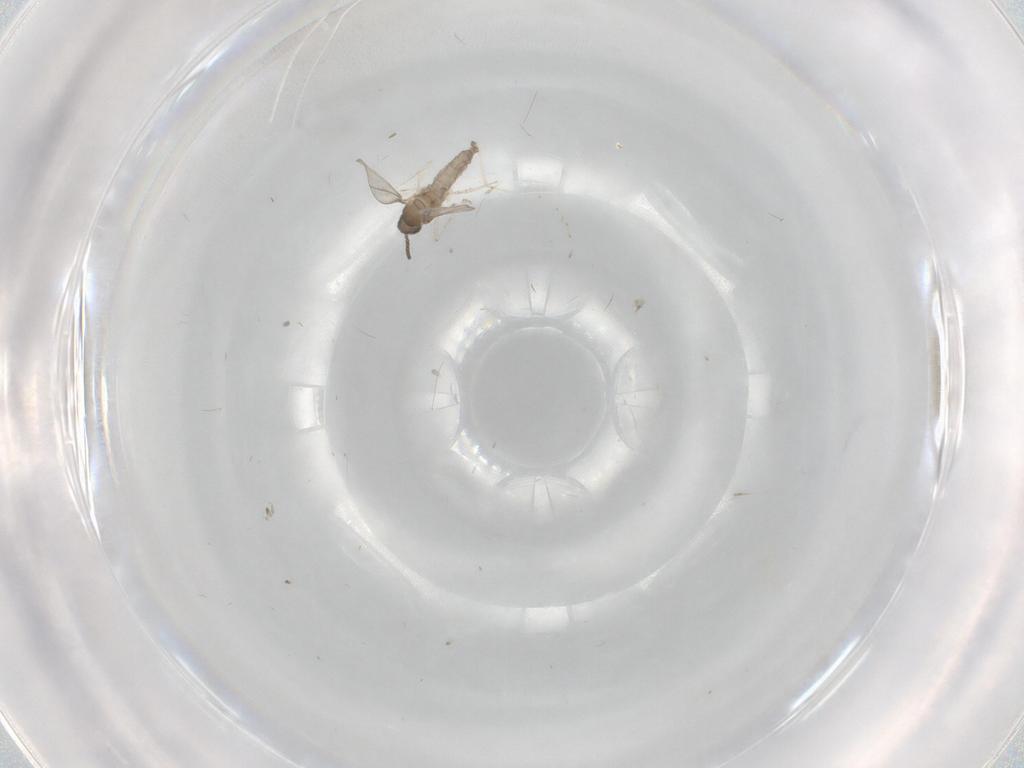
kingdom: Animalia
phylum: Arthropoda
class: Insecta
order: Diptera
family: Cecidomyiidae
